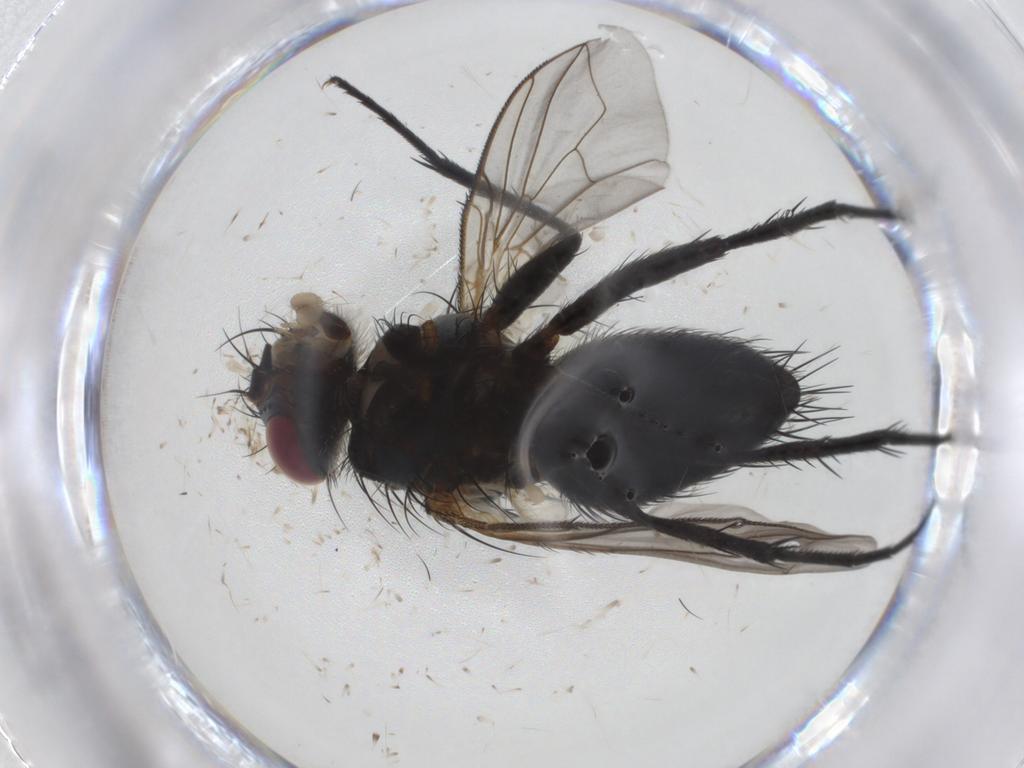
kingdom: Animalia
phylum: Arthropoda
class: Insecta
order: Diptera
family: Tachinidae
